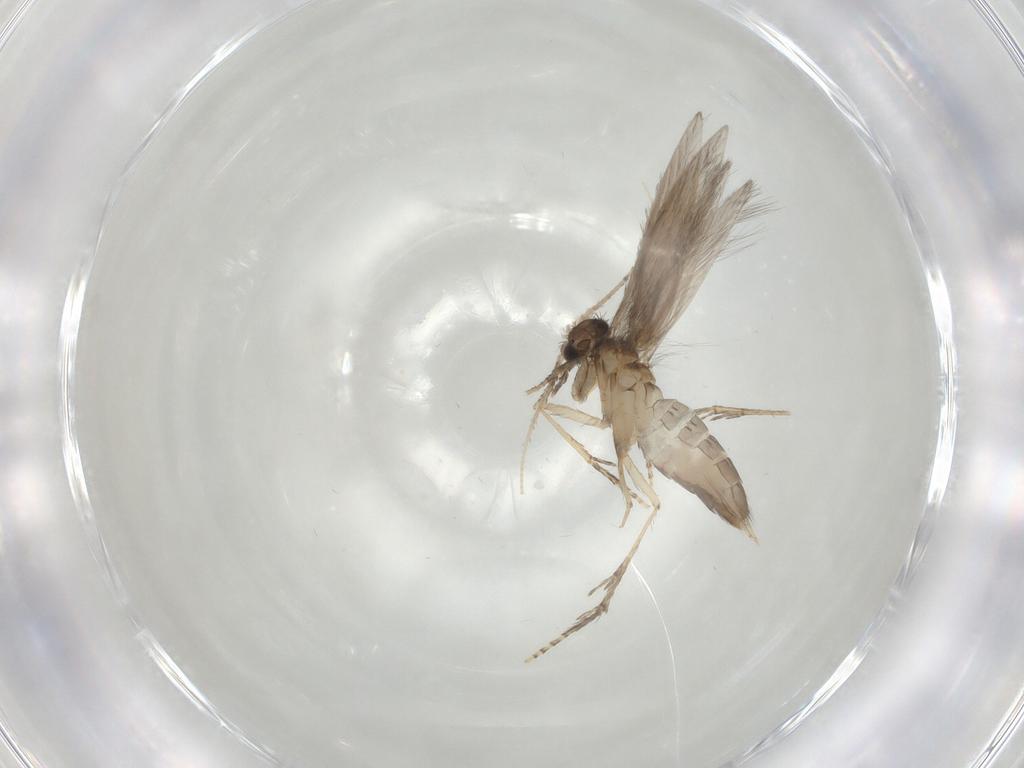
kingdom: Animalia
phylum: Arthropoda
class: Insecta
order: Trichoptera
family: Hydroptilidae
